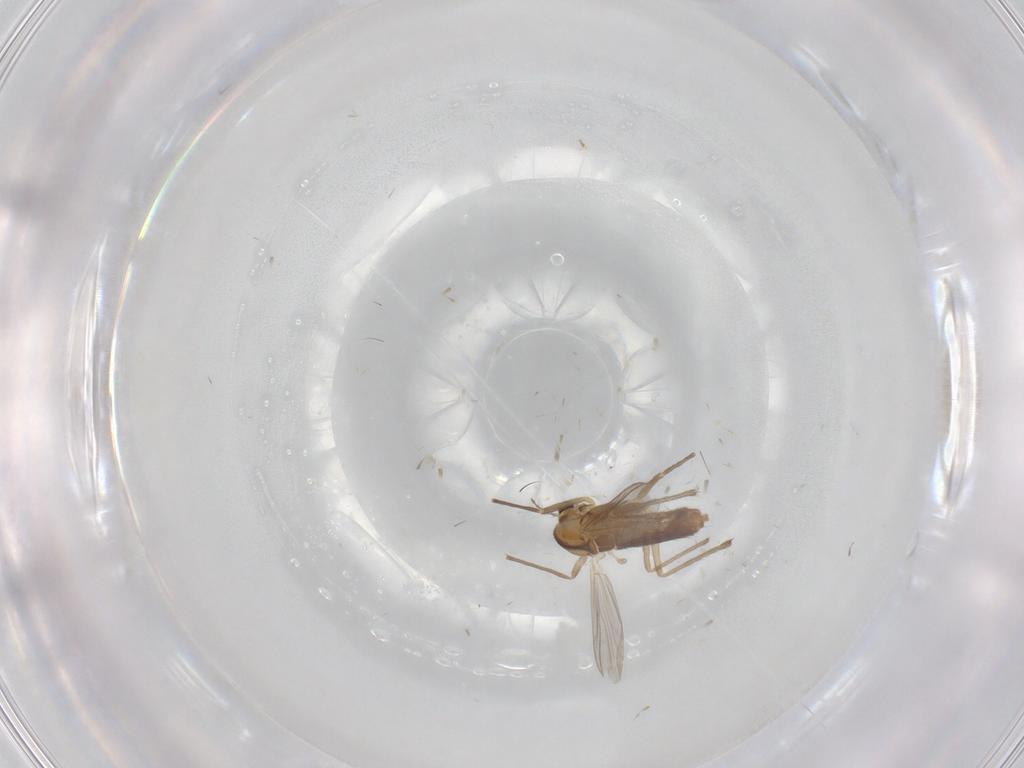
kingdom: Animalia
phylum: Arthropoda
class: Insecta
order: Diptera
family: Chironomidae
